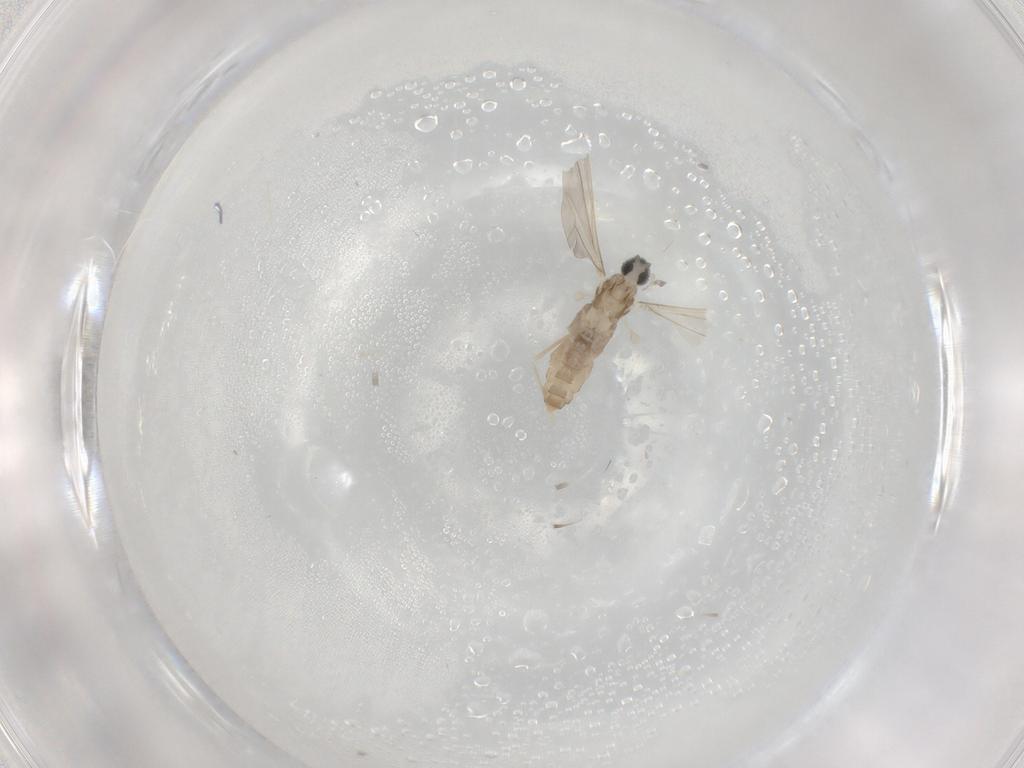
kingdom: Animalia
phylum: Arthropoda
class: Insecta
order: Diptera
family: Cecidomyiidae
